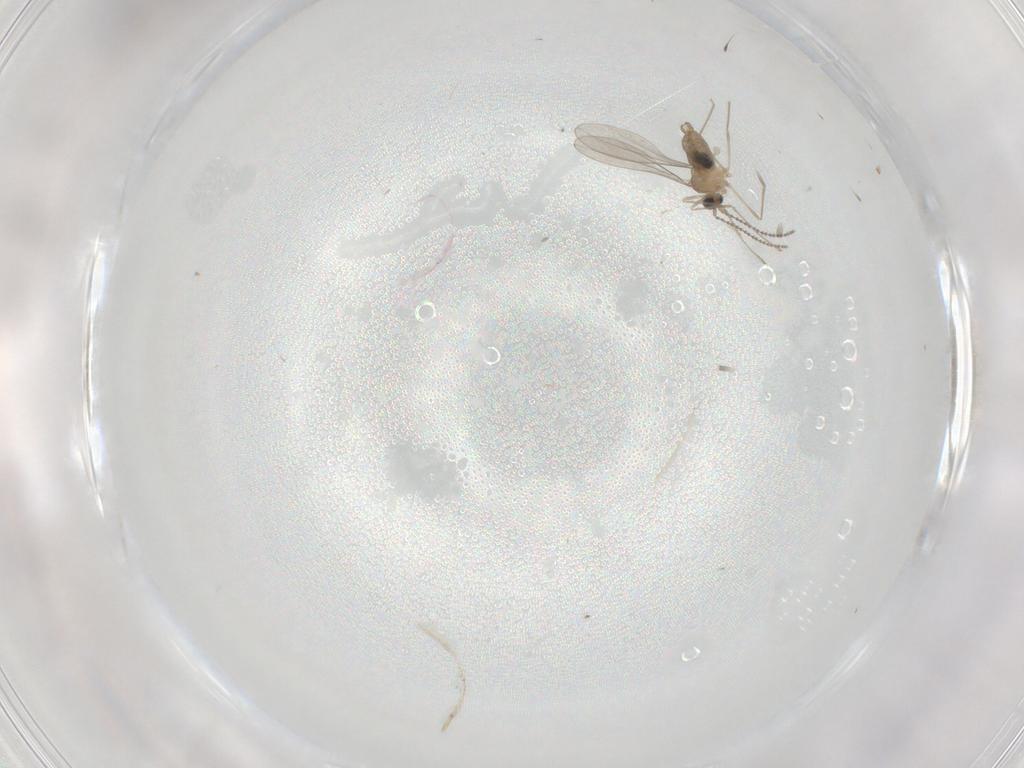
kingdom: Animalia
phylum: Arthropoda
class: Insecta
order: Diptera
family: Cecidomyiidae
